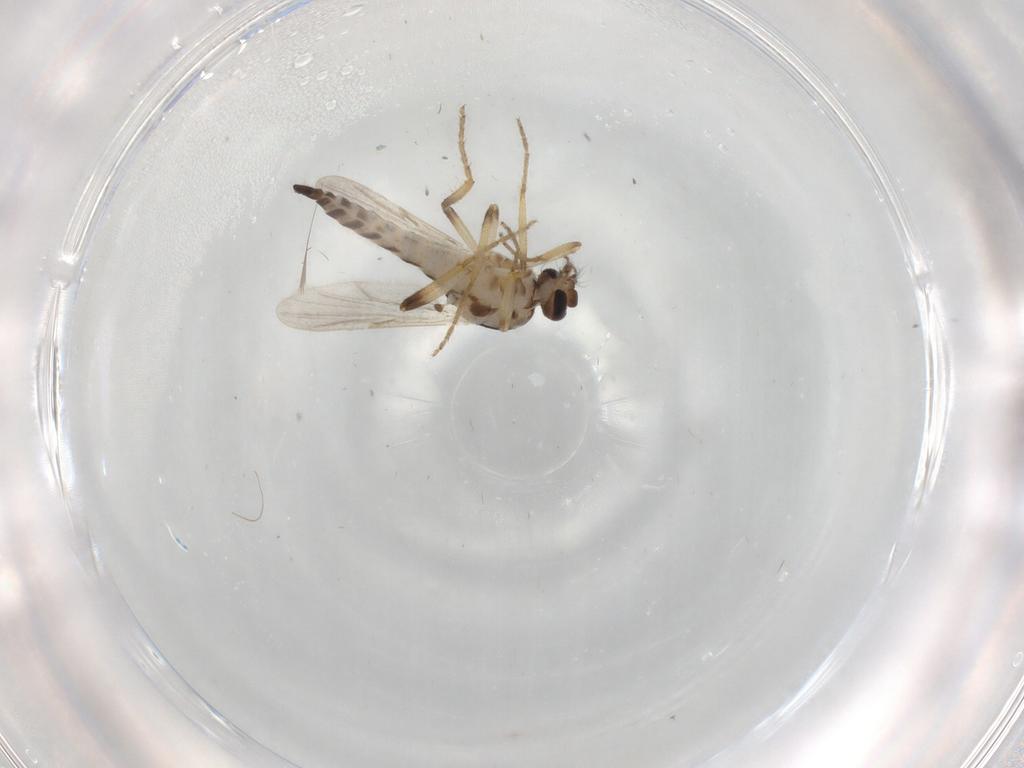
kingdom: Animalia
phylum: Arthropoda
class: Insecta
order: Diptera
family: Ceratopogonidae
